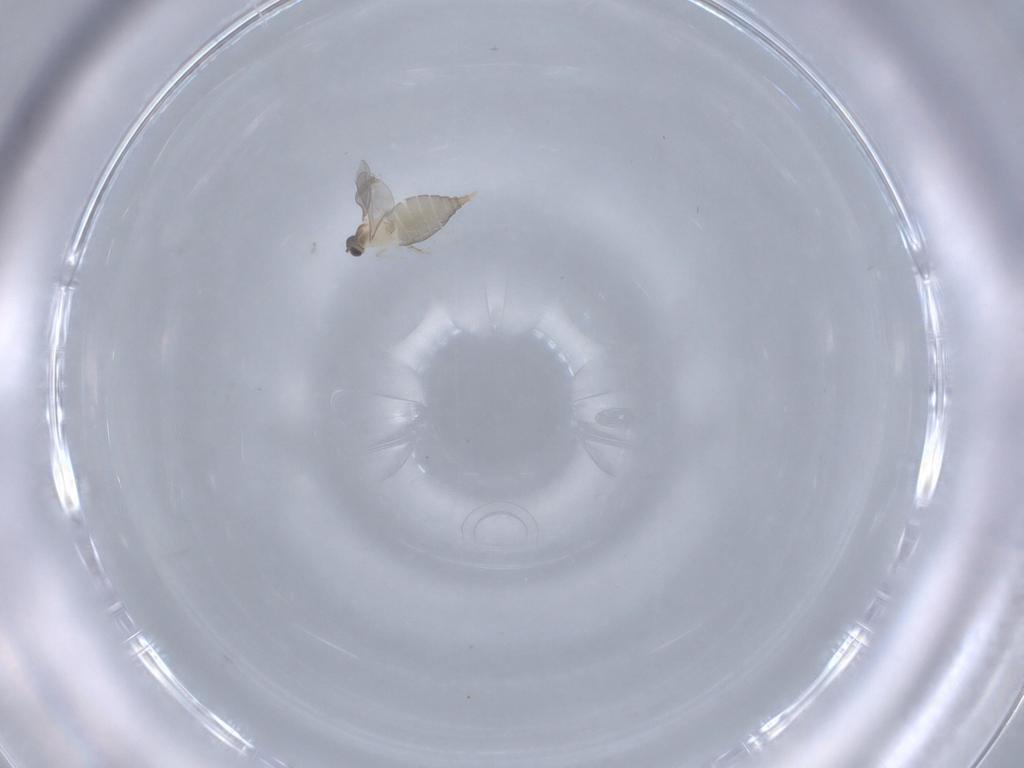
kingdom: Animalia
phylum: Arthropoda
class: Insecta
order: Diptera
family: Cecidomyiidae
